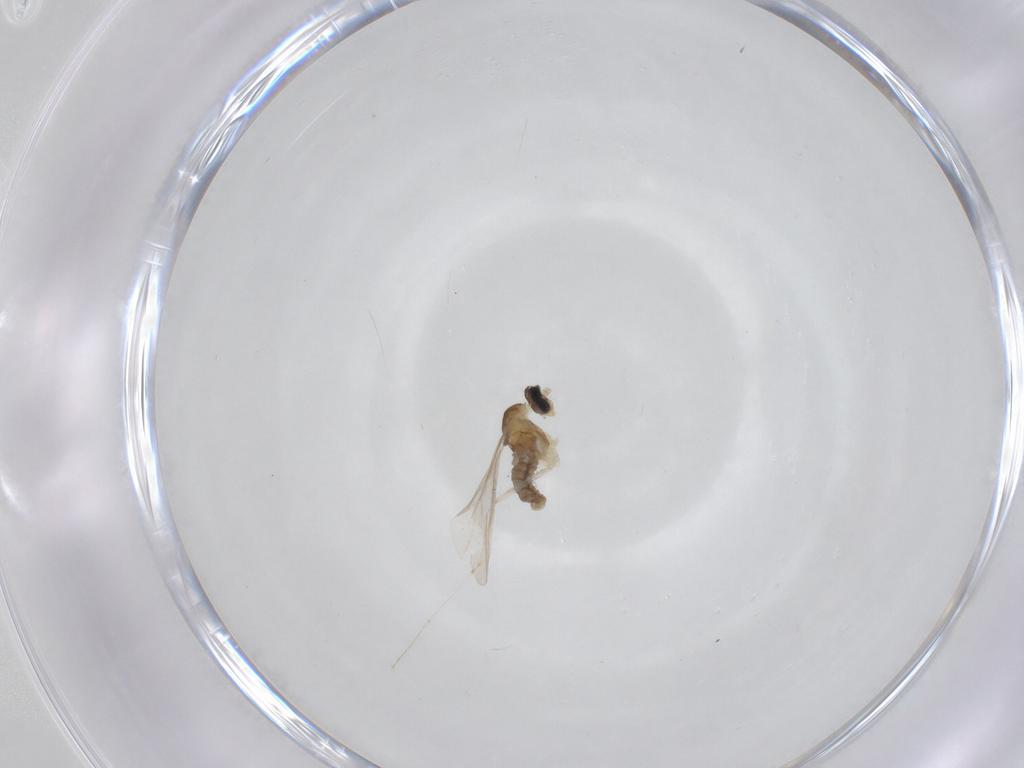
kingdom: Animalia
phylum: Arthropoda
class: Insecta
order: Diptera
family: Cecidomyiidae
